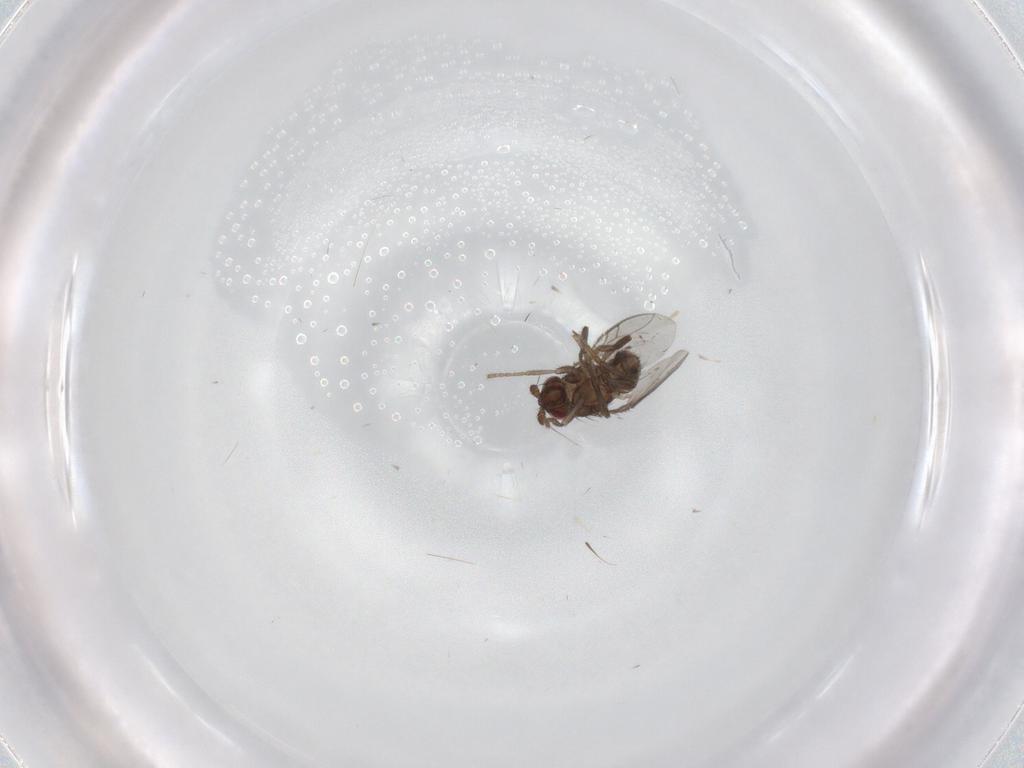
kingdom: Animalia
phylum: Arthropoda
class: Insecta
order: Diptera
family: Sphaeroceridae
